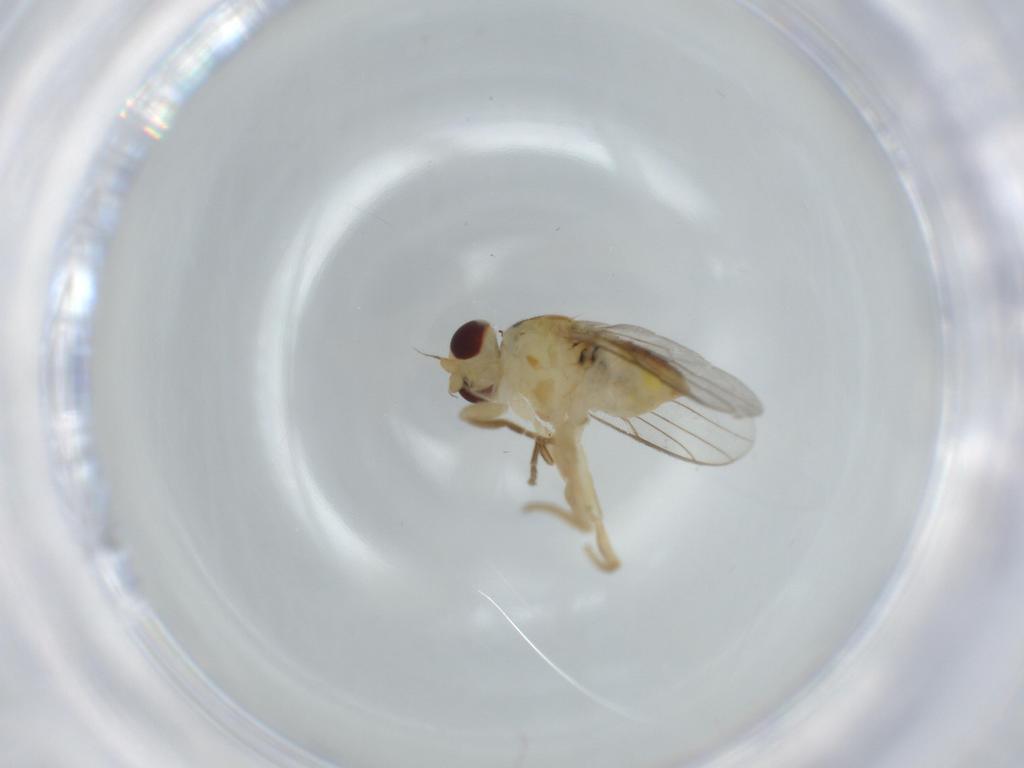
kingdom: Animalia
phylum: Arthropoda
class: Insecta
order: Diptera
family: Chloropidae
